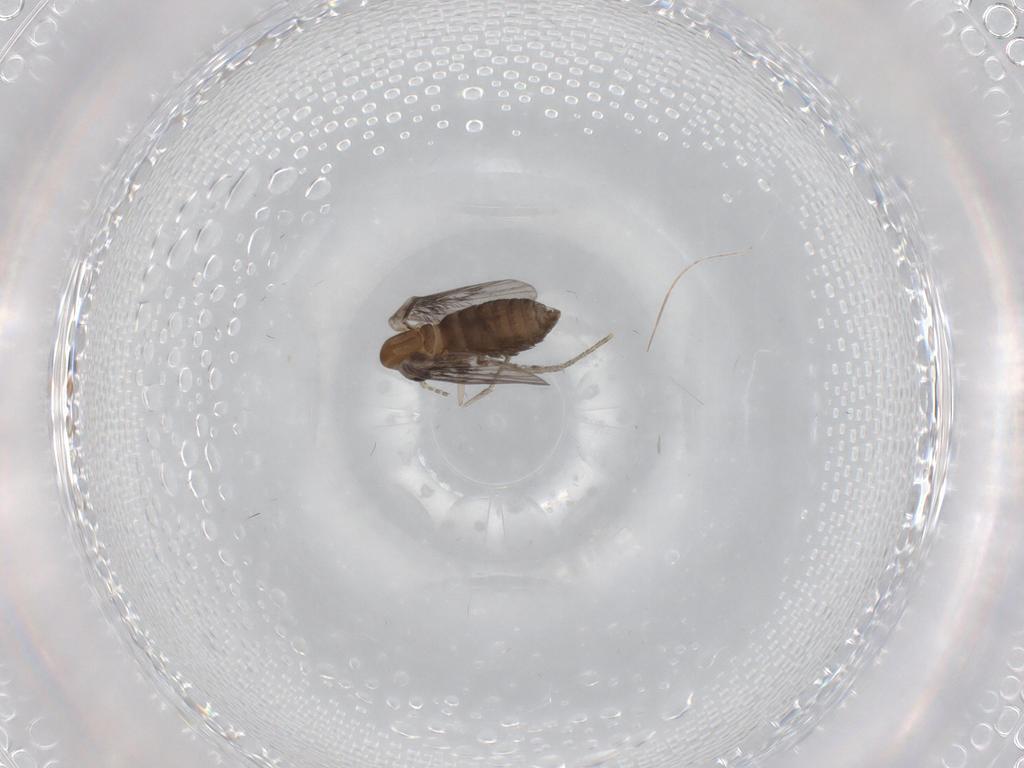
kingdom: Animalia
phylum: Arthropoda
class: Insecta
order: Diptera
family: Psychodidae
